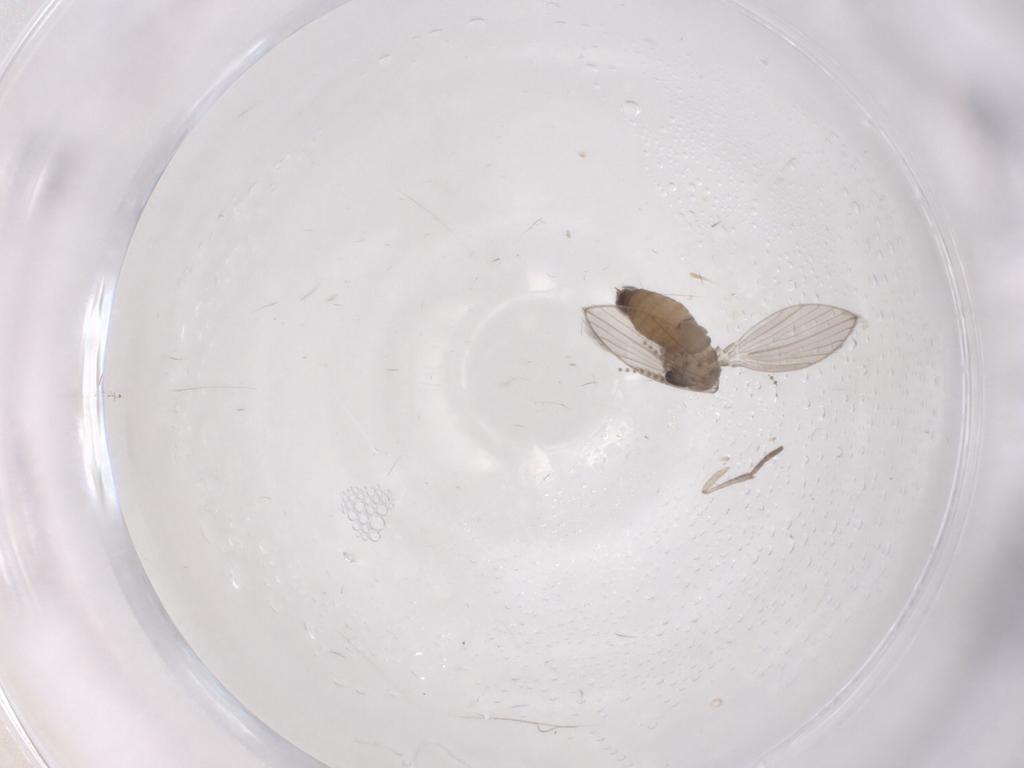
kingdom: Animalia
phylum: Arthropoda
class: Insecta
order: Diptera
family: Psychodidae
